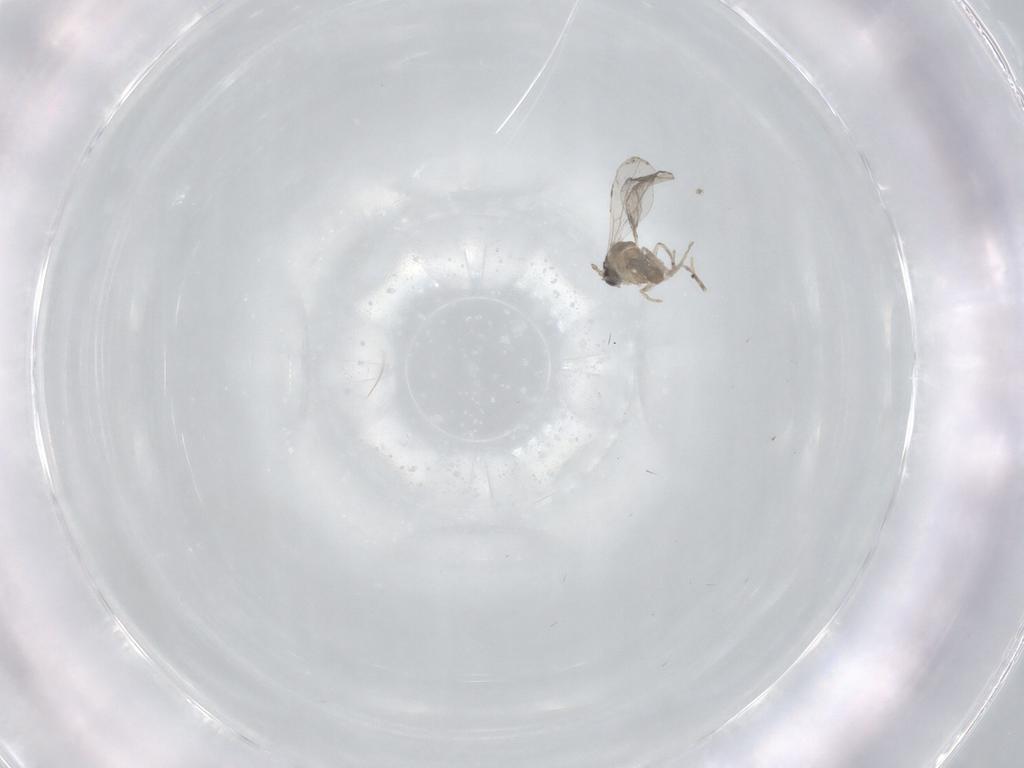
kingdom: Animalia
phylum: Arthropoda
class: Insecta
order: Diptera
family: Cecidomyiidae
